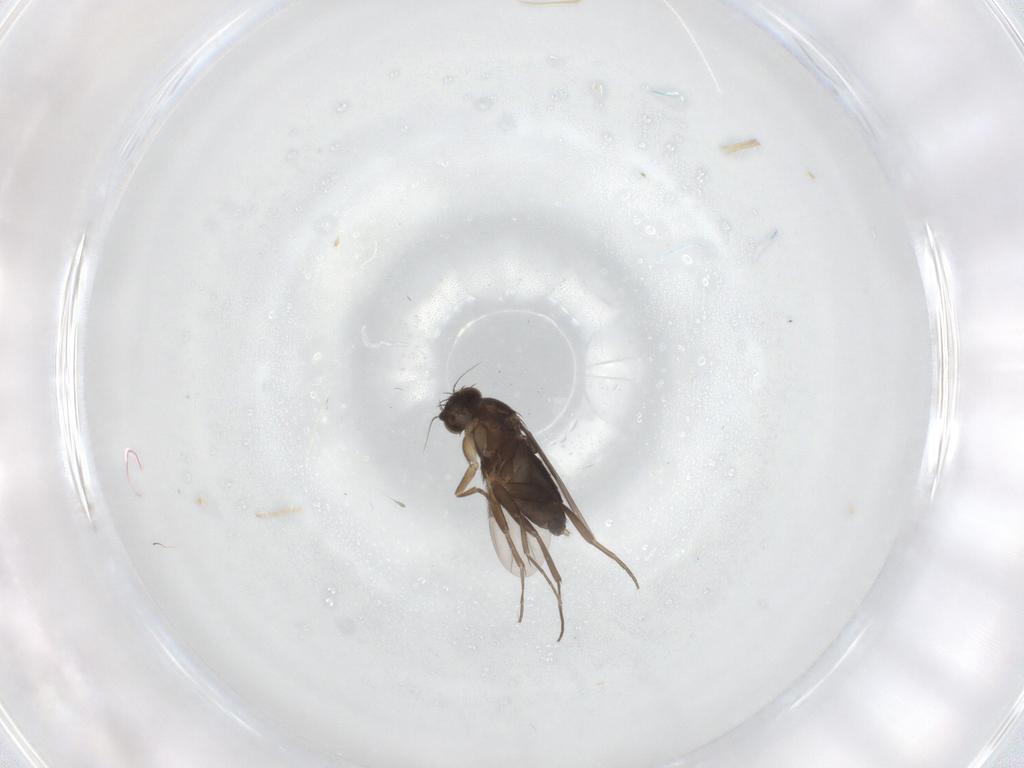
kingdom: Animalia
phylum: Arthropoda
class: Insecta
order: Diptera
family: Phoridae
